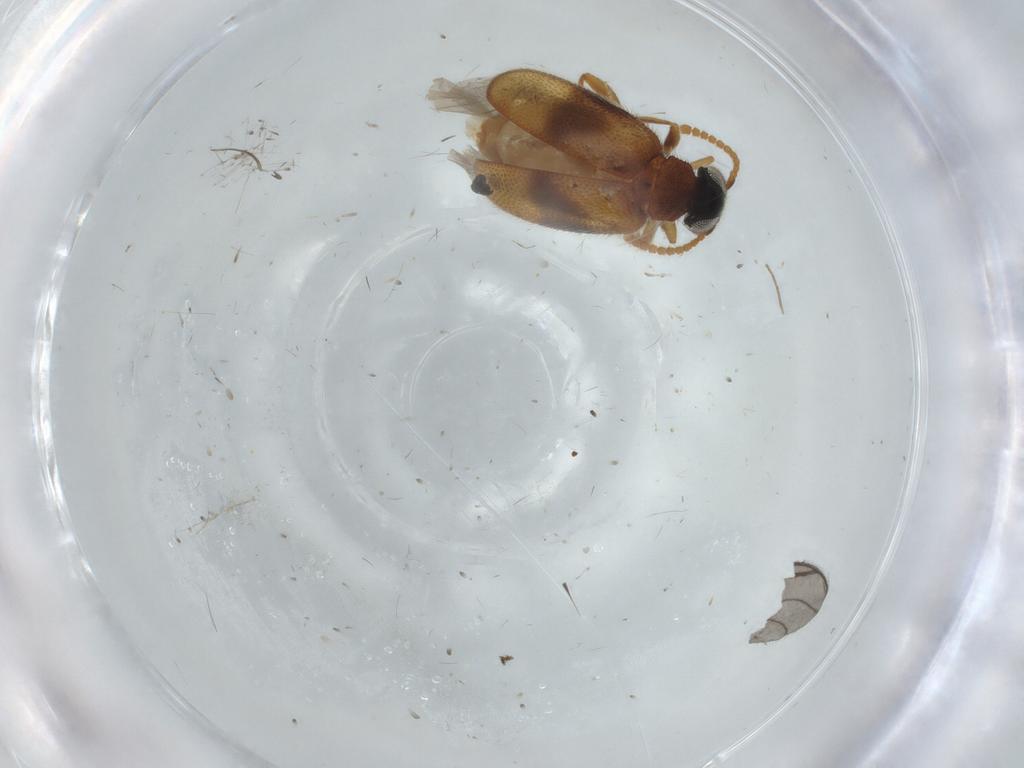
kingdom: Animalia
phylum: Arthropoda
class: Insecta
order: Coleoptera
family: Aderidae
